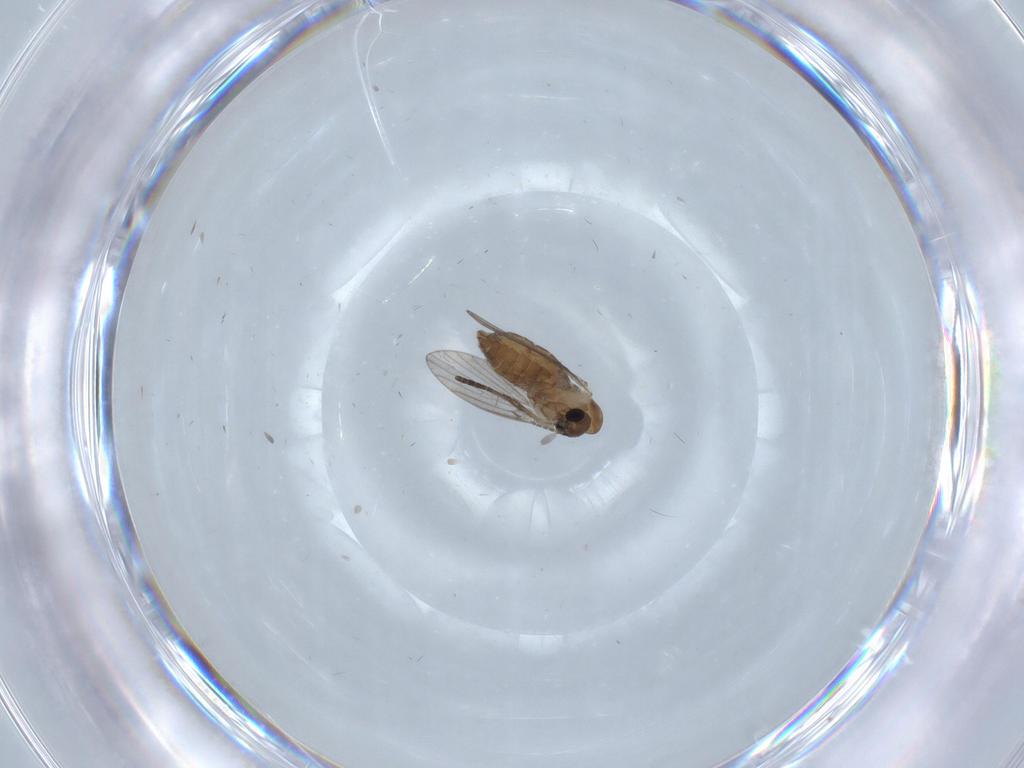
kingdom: Animalia
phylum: Arthropoda
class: Insecta
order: Diptera
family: Psychodidae
